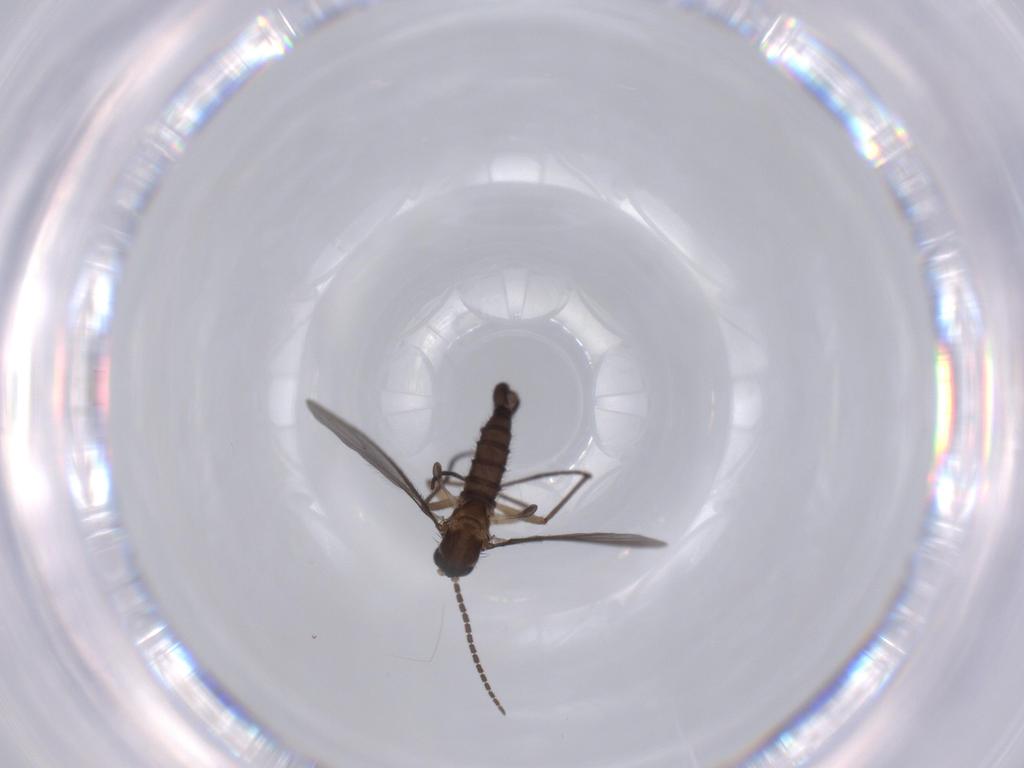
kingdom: Animalia
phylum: Arthropoda
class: Insecta
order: Diptera
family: Sciaridae
